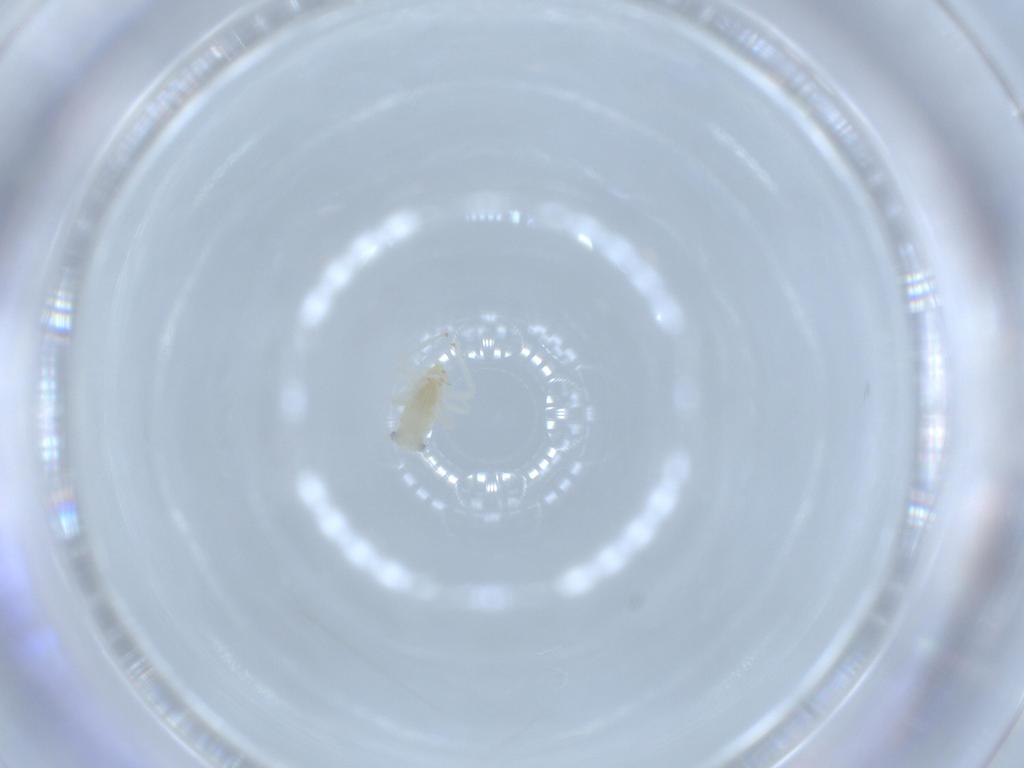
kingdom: Animalia
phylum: Arthropoda
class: Insecta
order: Hemiptera
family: Cicadellidae
